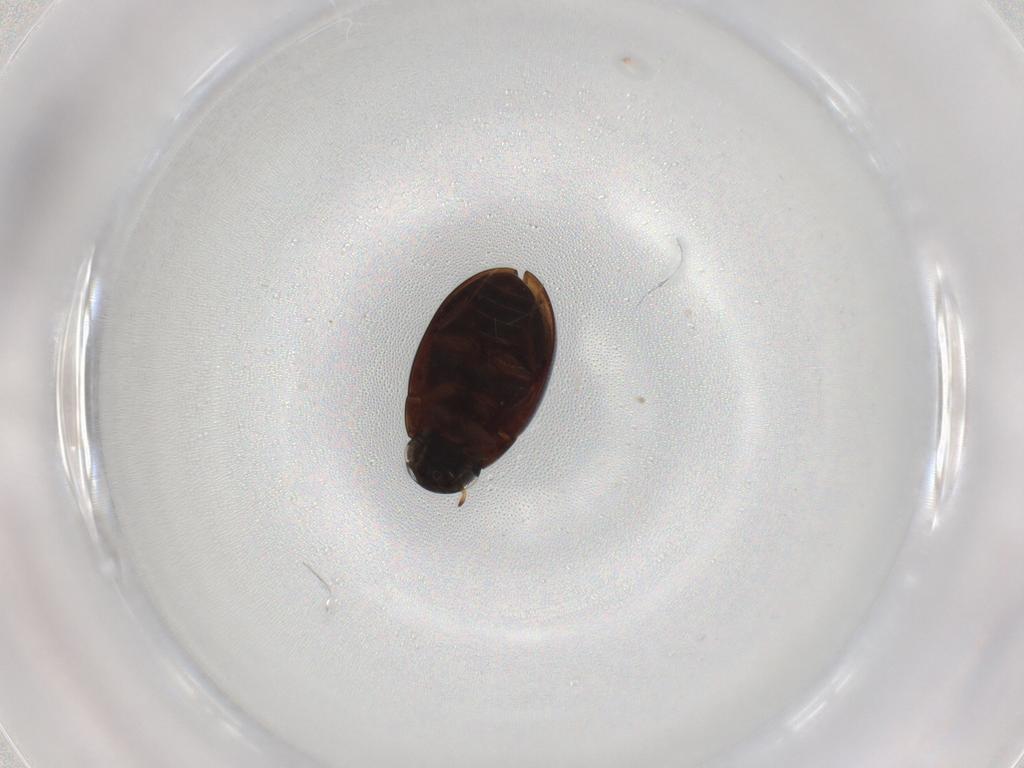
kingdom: Animalia
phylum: Arthropoda
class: Insecta
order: Coleoptera
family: Hydrophilidae
